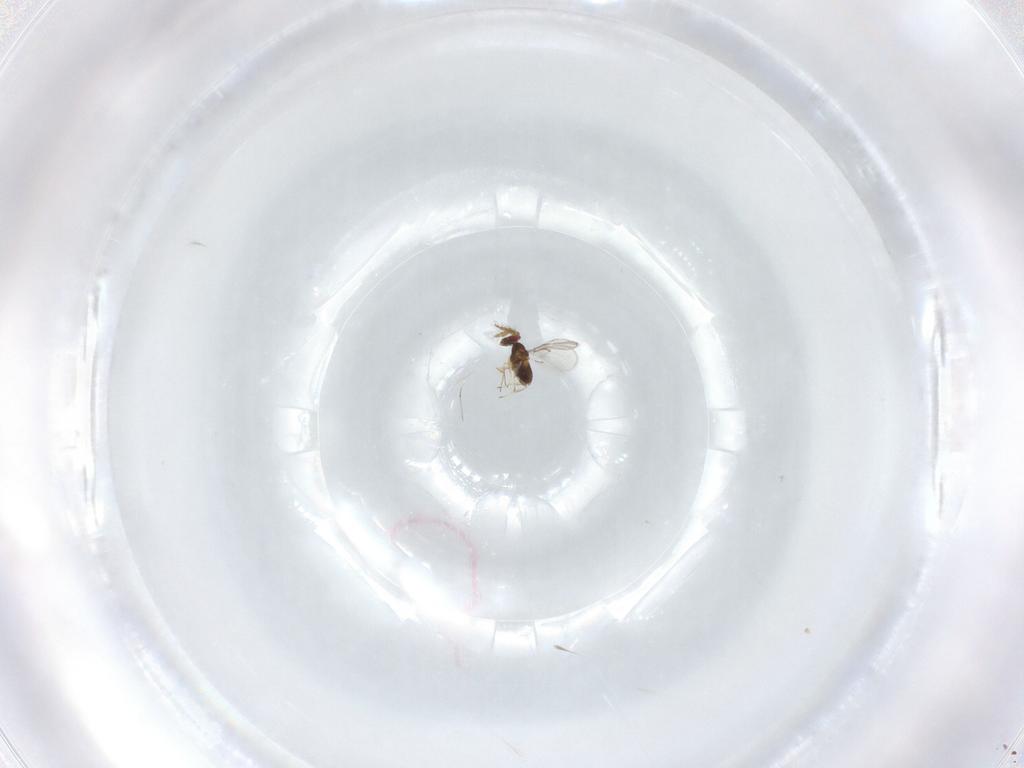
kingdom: Animalia
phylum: Arthropoda
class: Insecta
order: Hymenoptera
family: Trichogrammatidae
